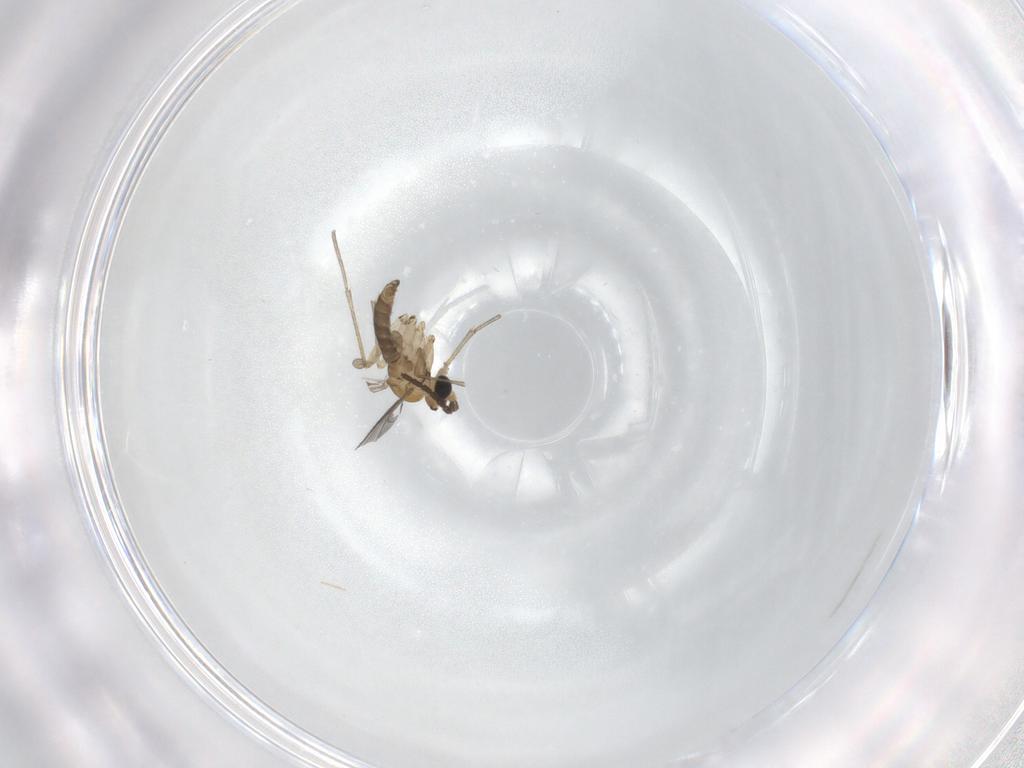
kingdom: Animalia
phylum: Arthropoda
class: Insecta
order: Diptera
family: Sciaridae
